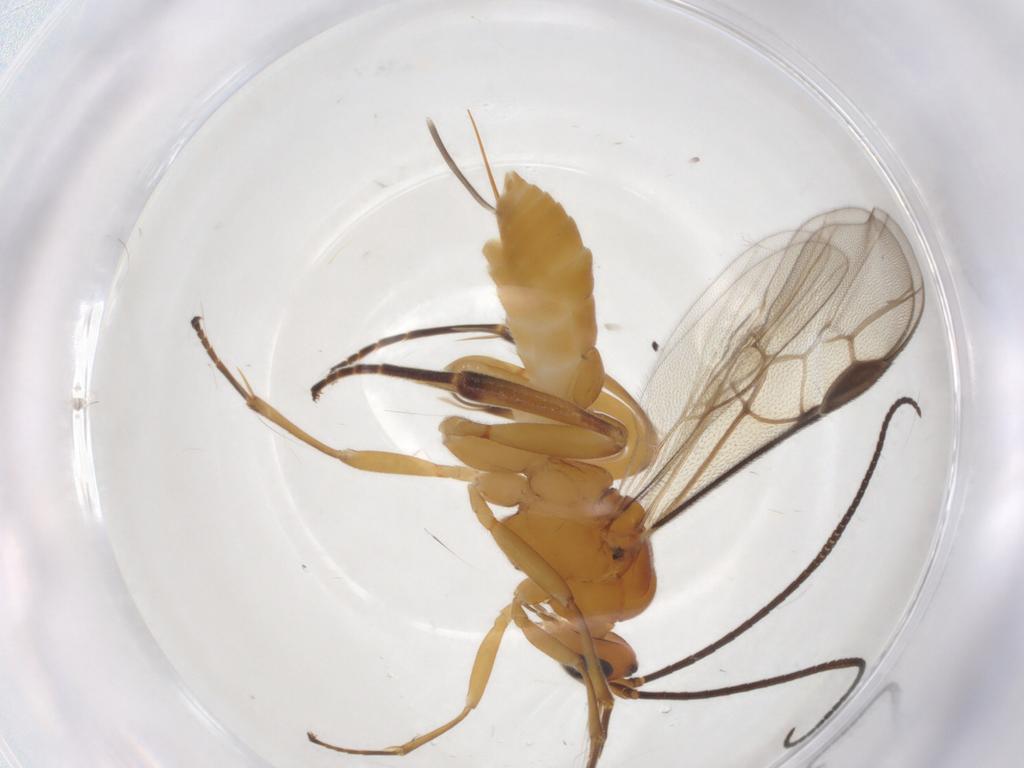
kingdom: Animalia
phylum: Arthropoda
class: Insecta
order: Hymenoptera
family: Braconidae
